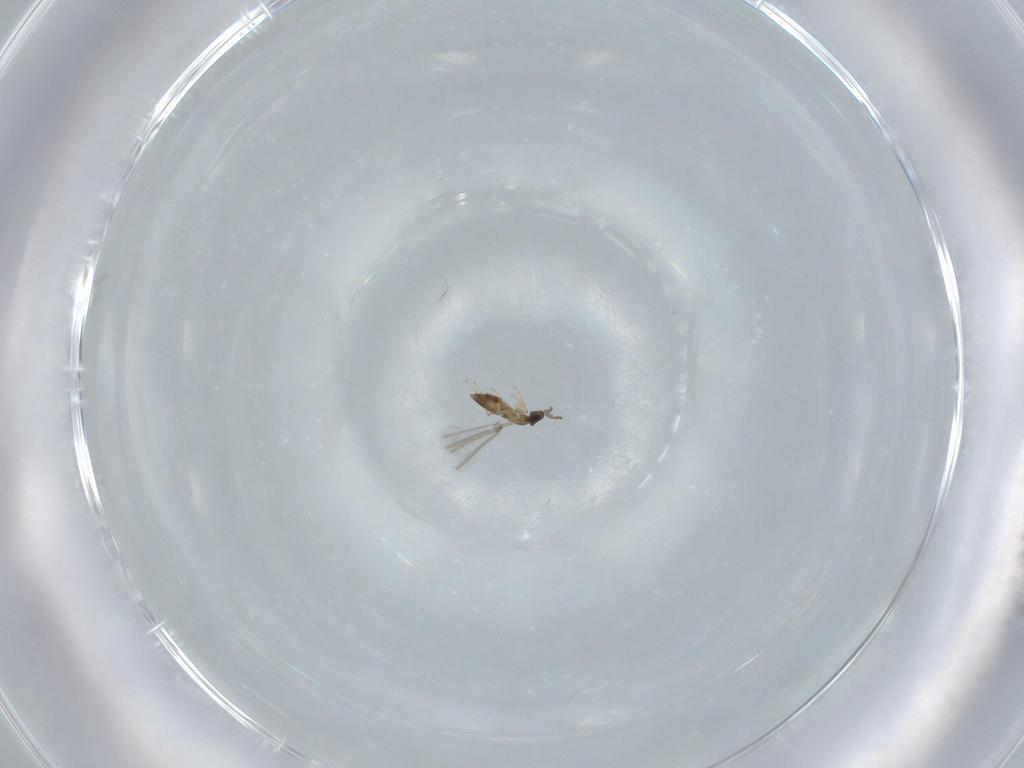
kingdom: Animalia
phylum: Arthropoda
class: Insecta
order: Hymenoptera
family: Mymaridae
